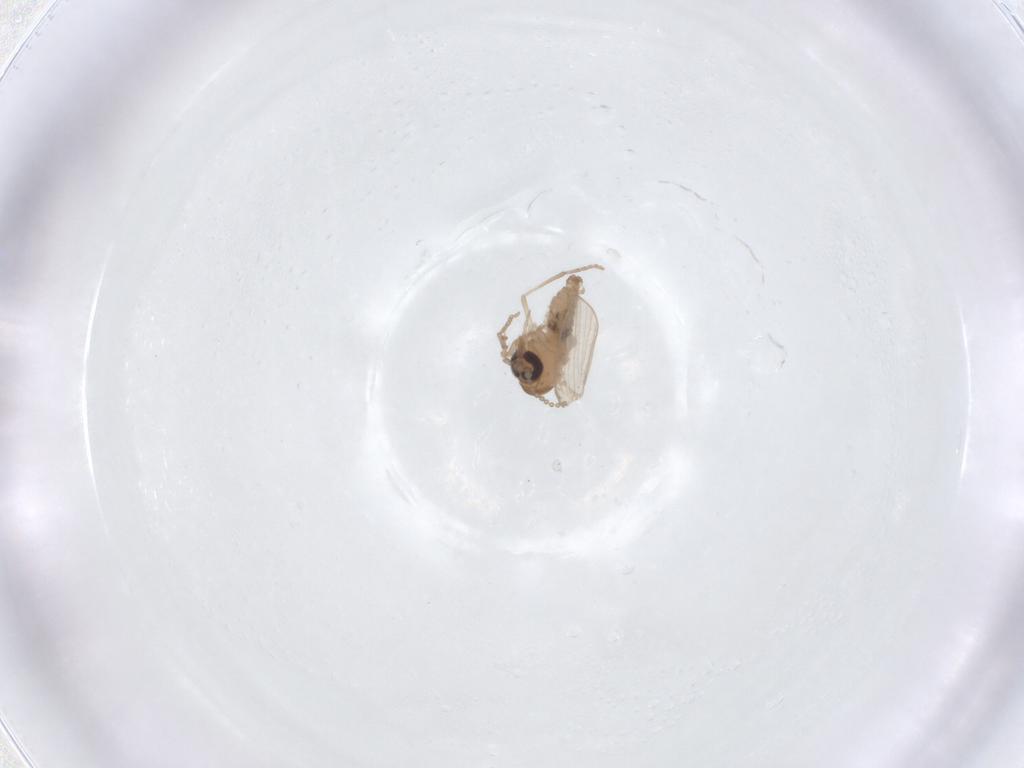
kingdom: Animalia
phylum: Arthropoda
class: Insecta
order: Diptera
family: Psychodidae
